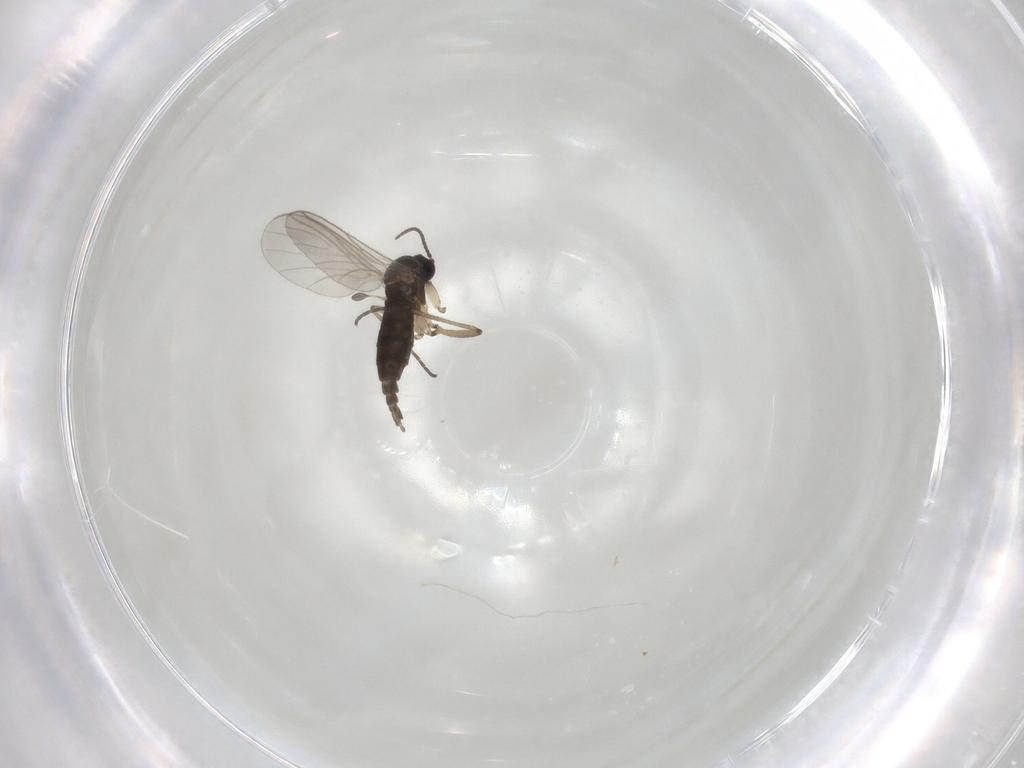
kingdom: Animalia
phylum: Arthropoda
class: Insecta
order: Diptera
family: Sciaridae
